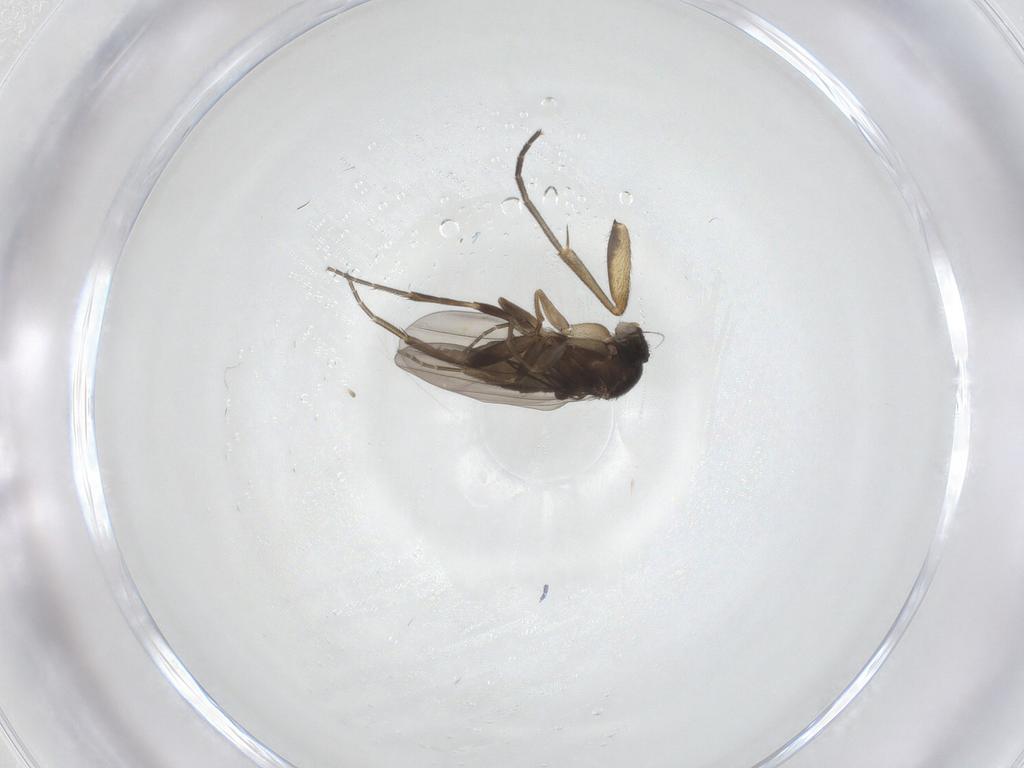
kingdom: Animalia
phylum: Arthropoda
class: Insecta
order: Diptera
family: Phoridae
